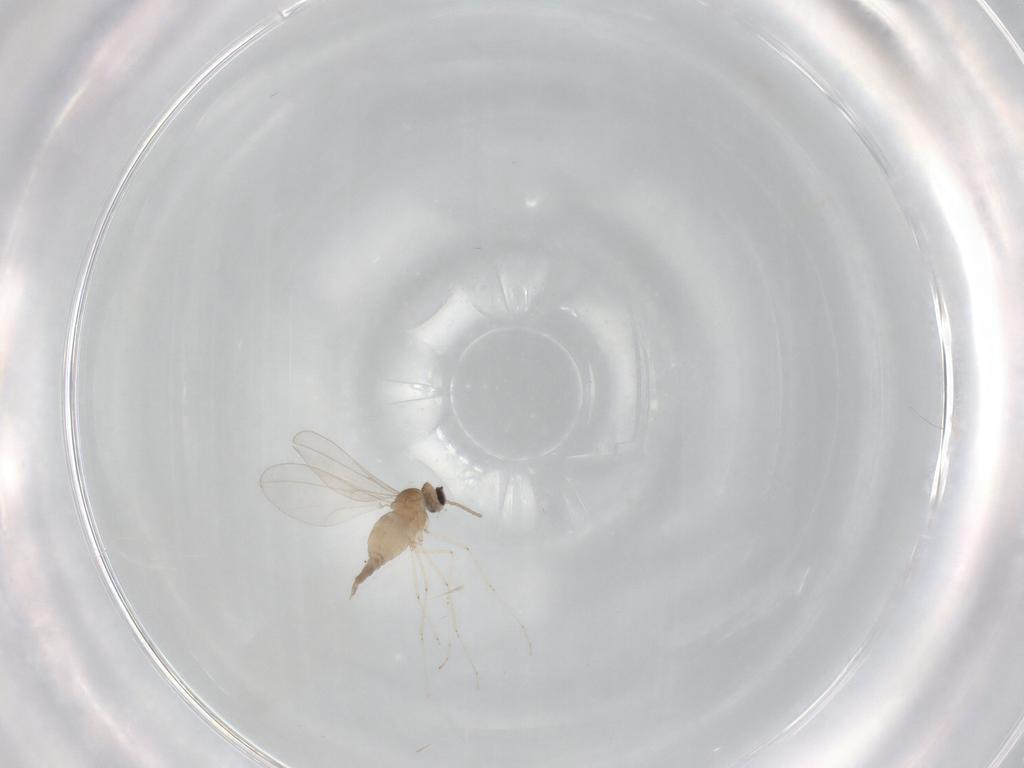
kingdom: Animalia
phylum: Arthropoda
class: Insecta
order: Diptera
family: Cecidomyiidae
